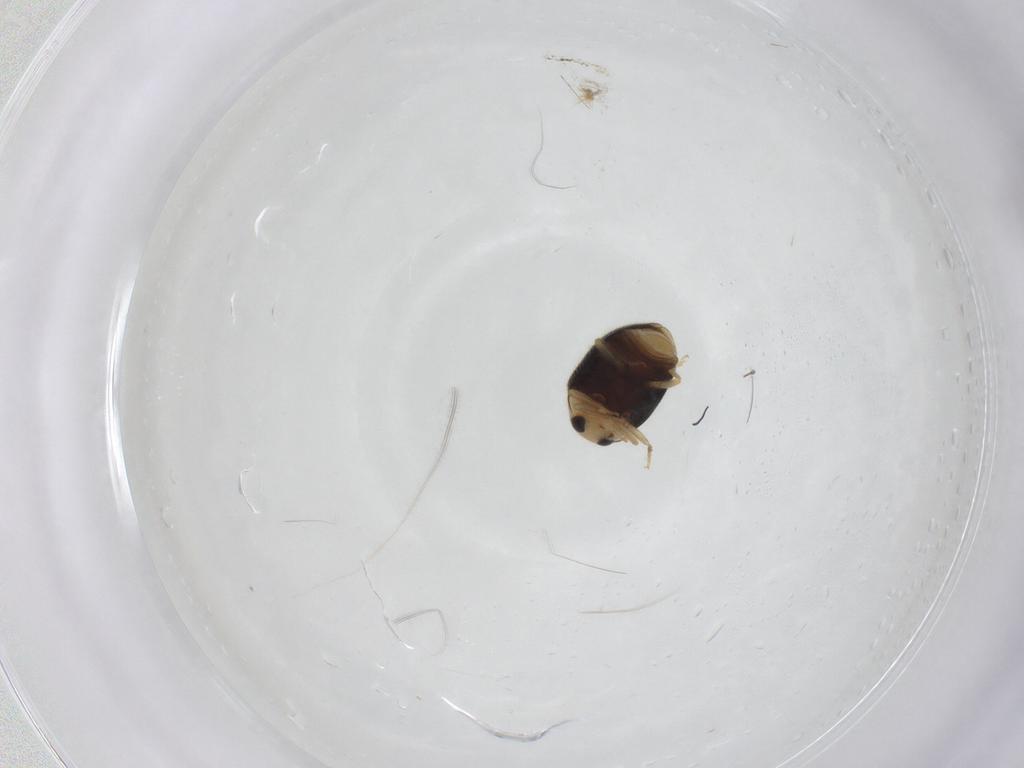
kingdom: Animalia
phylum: Arthropoda
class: Insecta
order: Coleoptera
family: Coccinellidae
